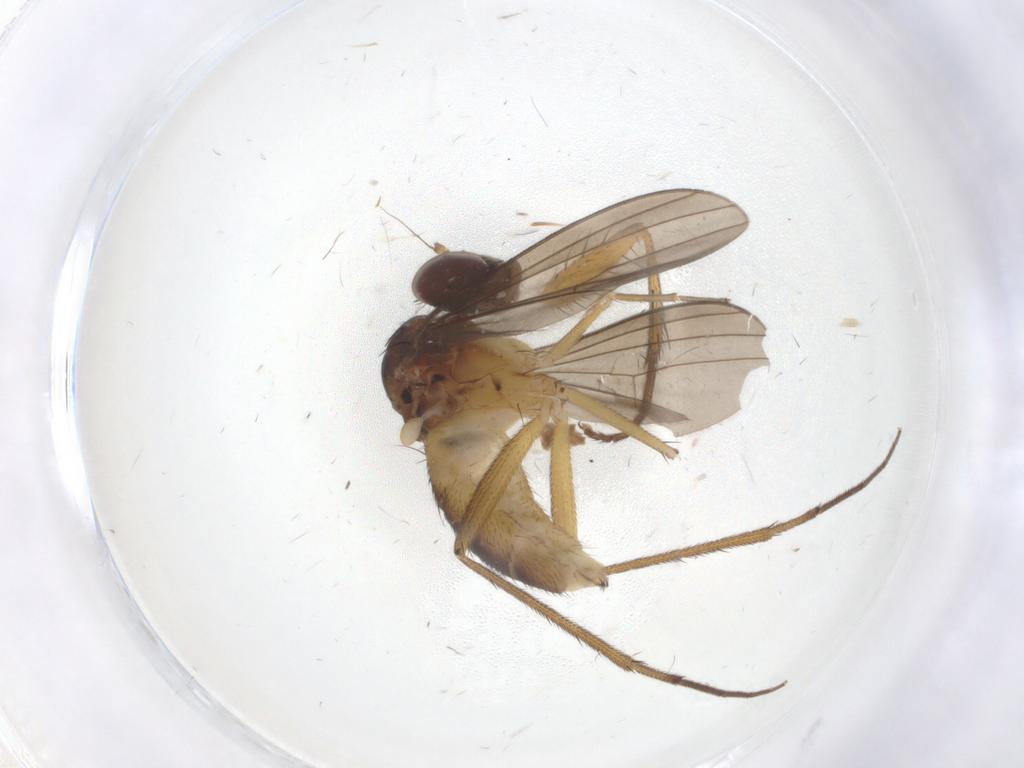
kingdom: Animalia
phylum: Arthropoda
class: Insecta
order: Diptera
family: Dolichopodidae
